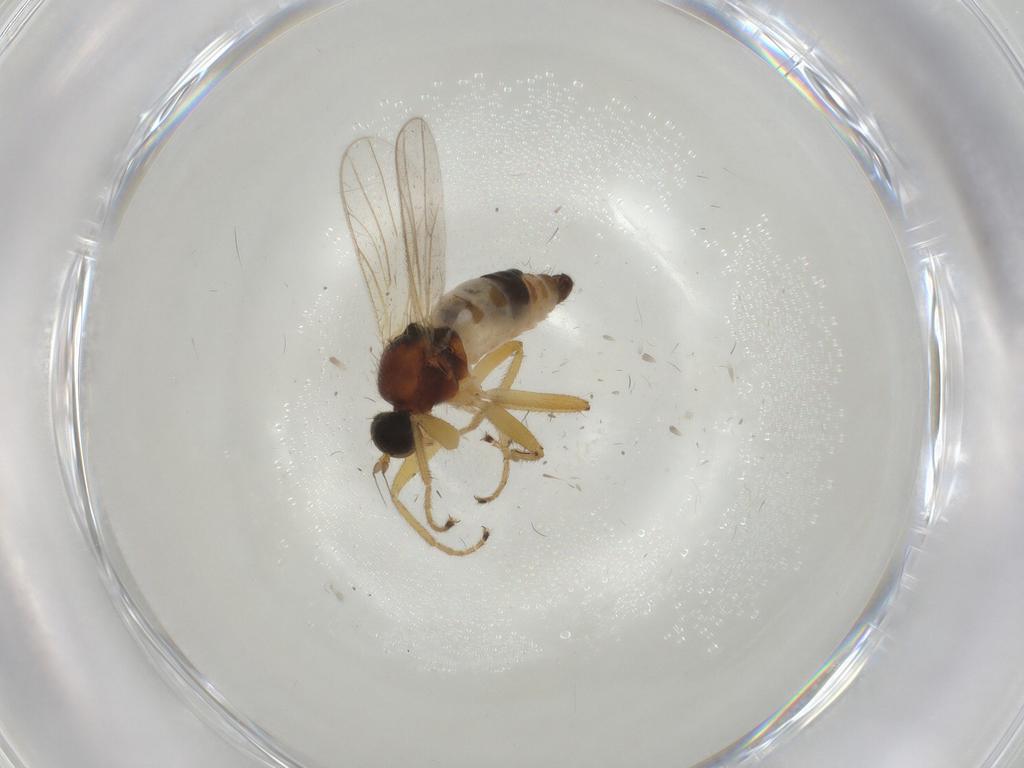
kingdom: Animalia
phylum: Arthropoda
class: Insecta
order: Diptera
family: Hybotidae
